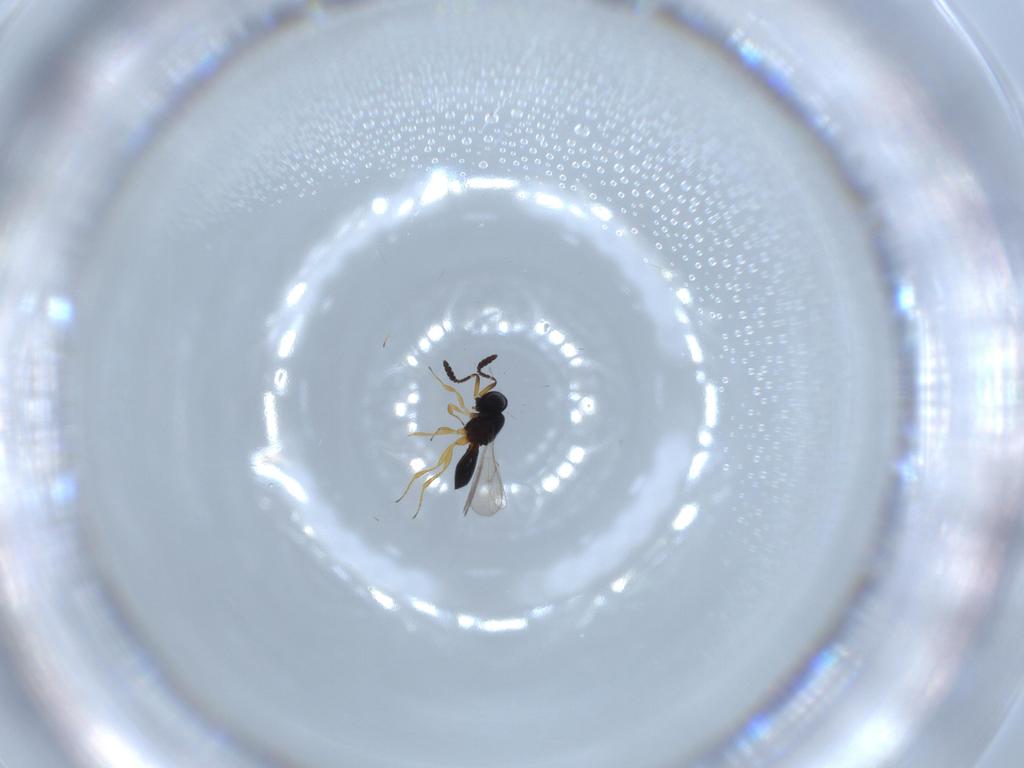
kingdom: Animalia
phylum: Arthropoda
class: Insecta
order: Hymenoptera
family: Scelionidae
